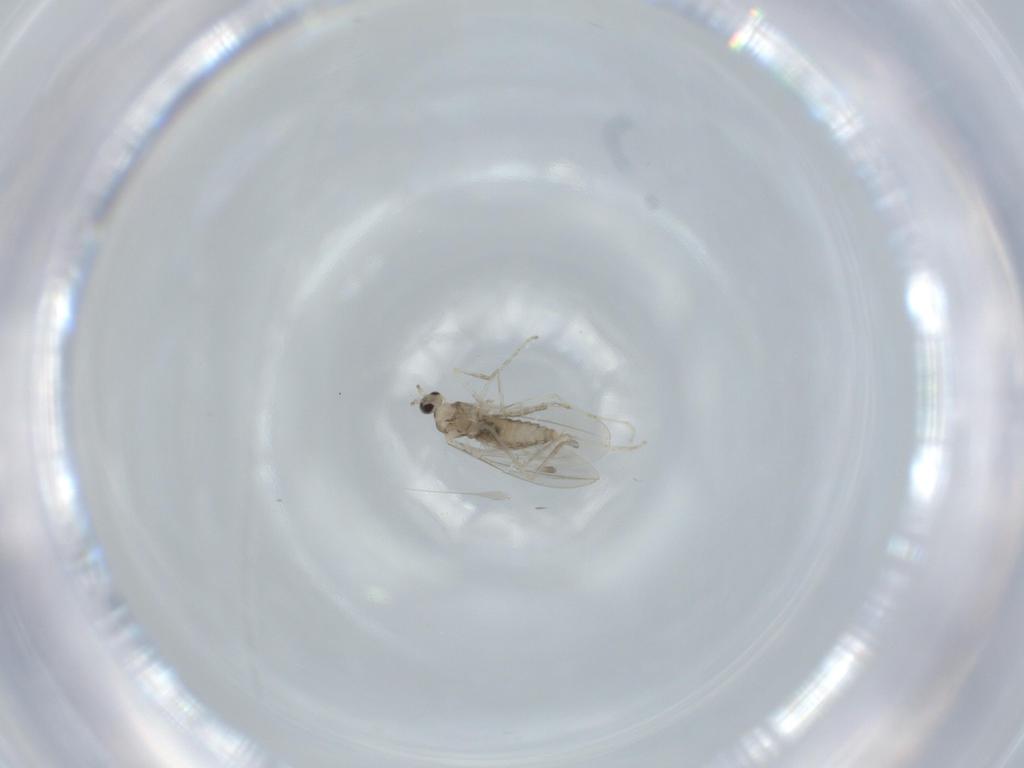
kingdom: Animalia
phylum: Arthropoda
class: Insecta
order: Diptera
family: Cecidomyiidae
